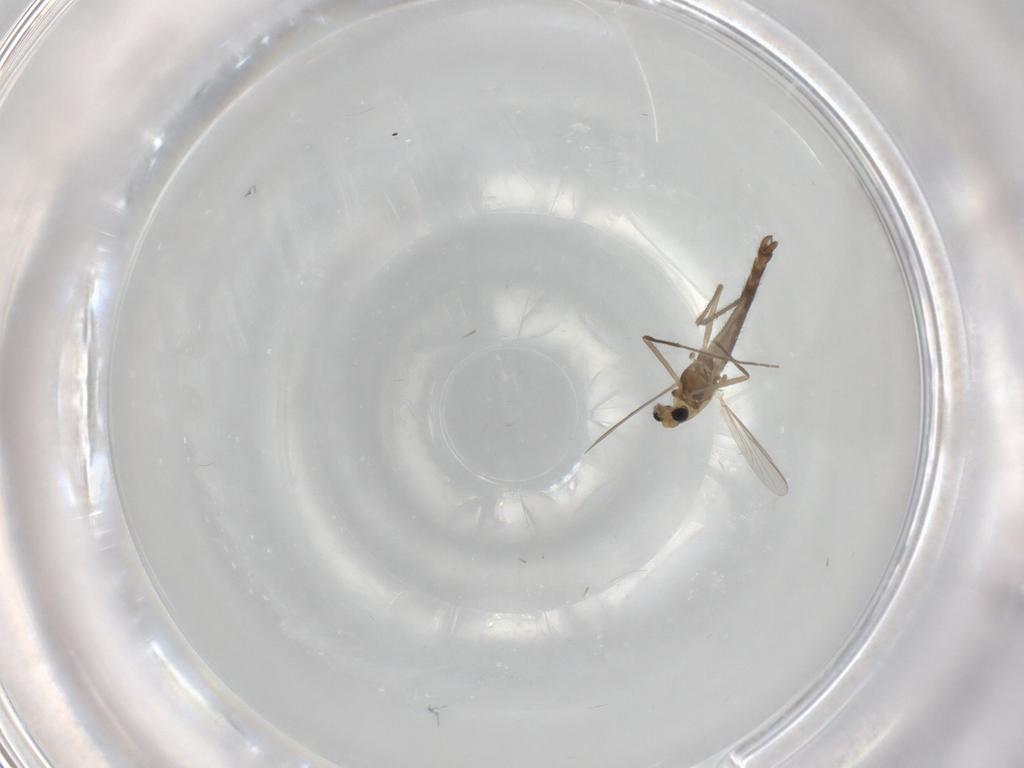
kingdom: Animalia
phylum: Arthropoda
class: Insecta
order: Diptera
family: Chironomidae
